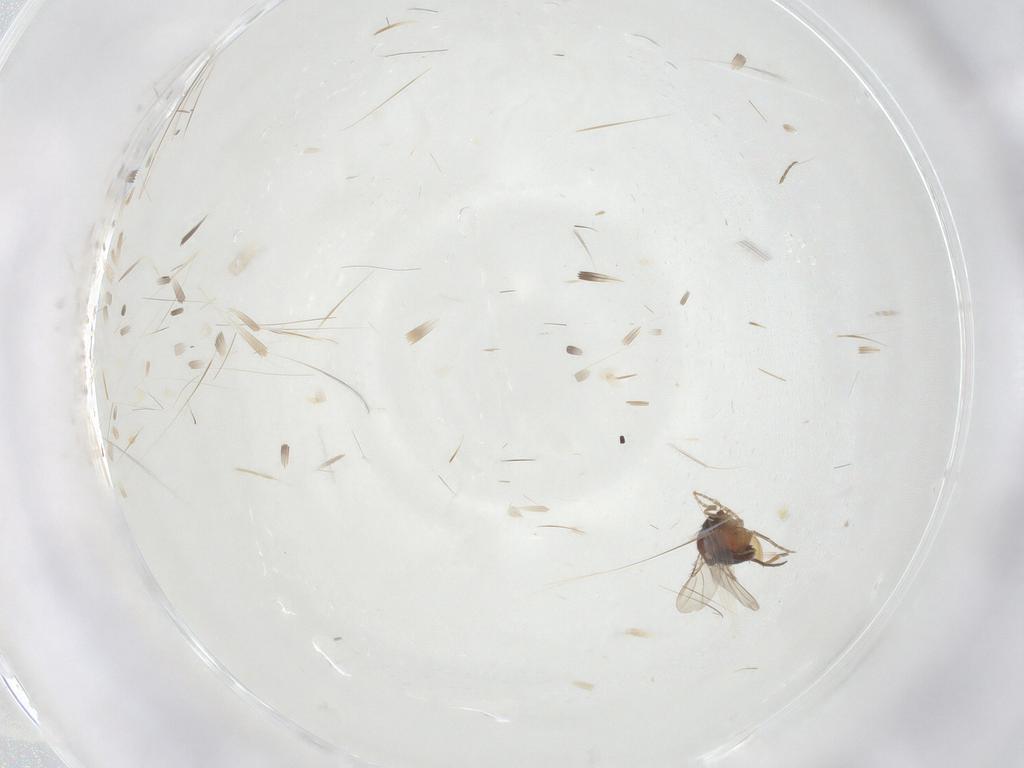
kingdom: Animalia
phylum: Arthropoda
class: Insecta
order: Diptera
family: Phoridae
